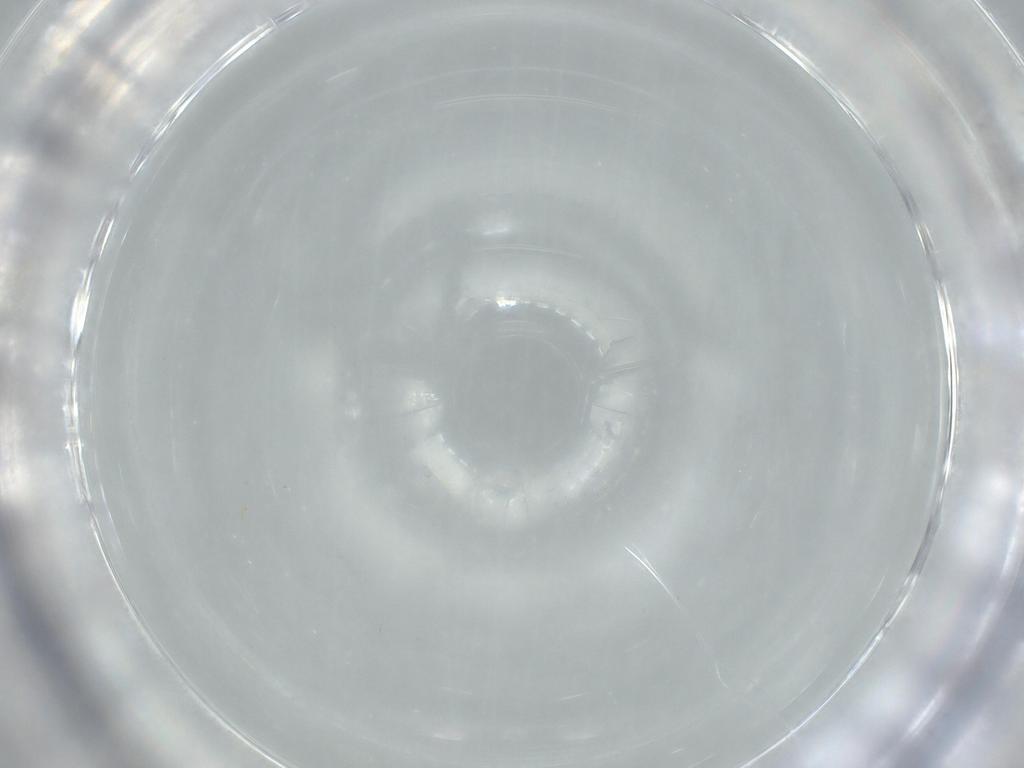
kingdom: Animalia
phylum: Arthropoda
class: Insecta
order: Hymenoptera
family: Aphelinidae
